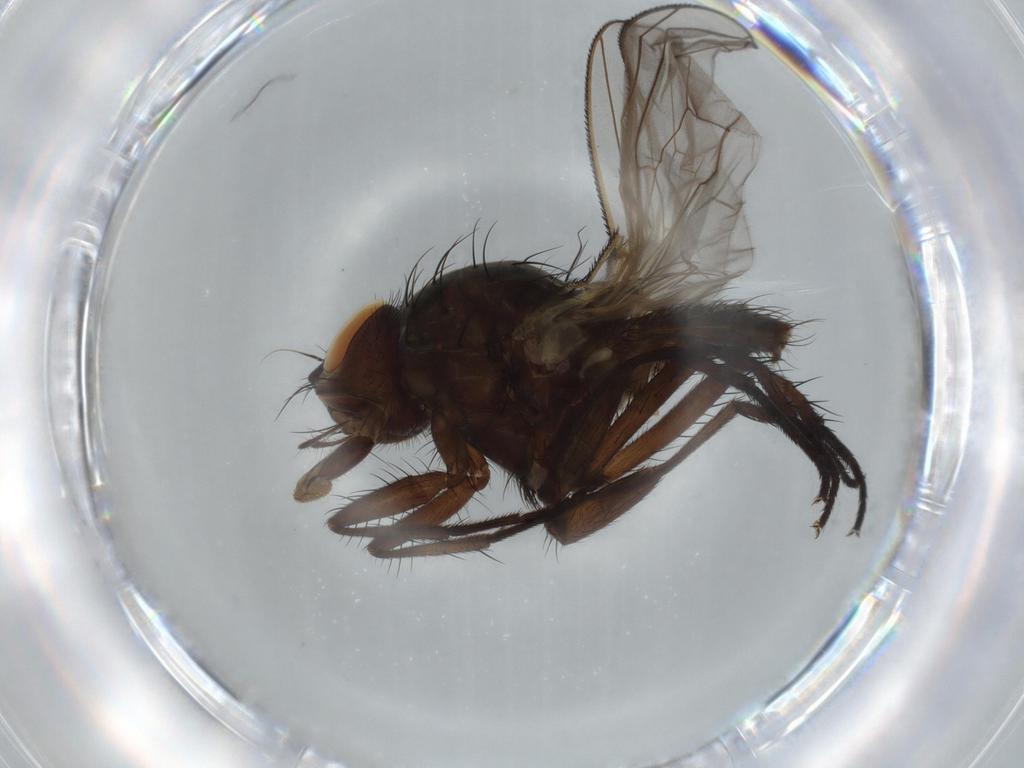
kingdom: Animalia
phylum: Arthropoda
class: Insecta
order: Diptera
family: Anthomyiidae
